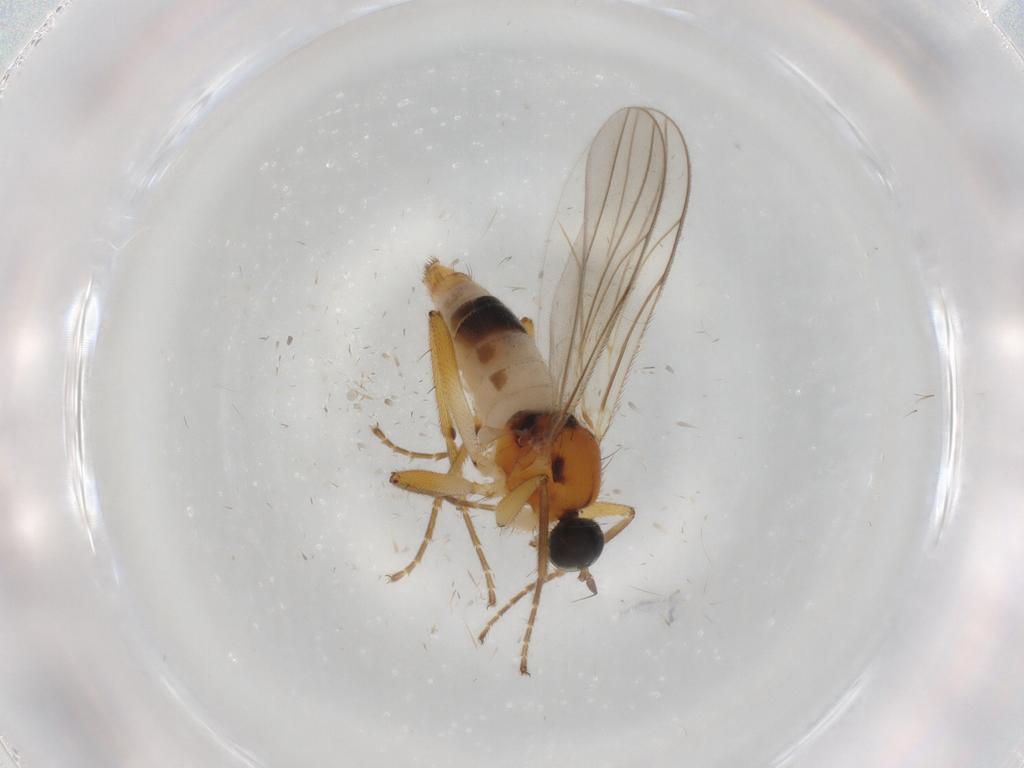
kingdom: Animalia
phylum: Arthropoda
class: Insecta
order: Diptera
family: Hybotidae
